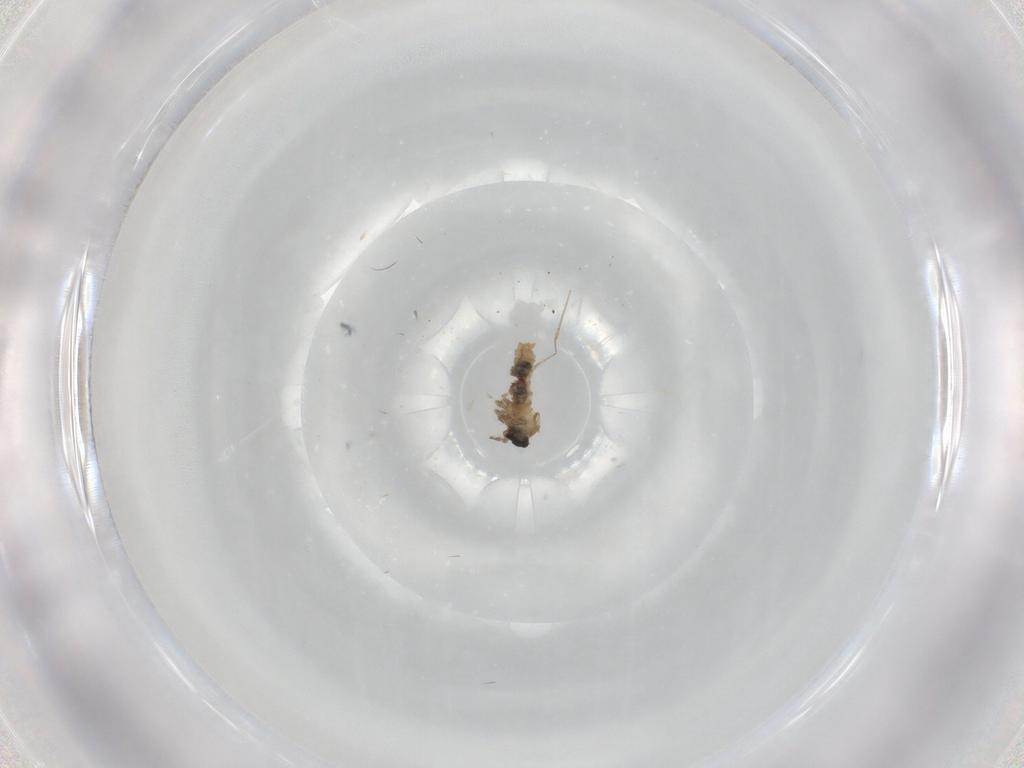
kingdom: Animalia
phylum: Arthropoda
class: Insecta
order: Diptera
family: Cecidomyiidae
